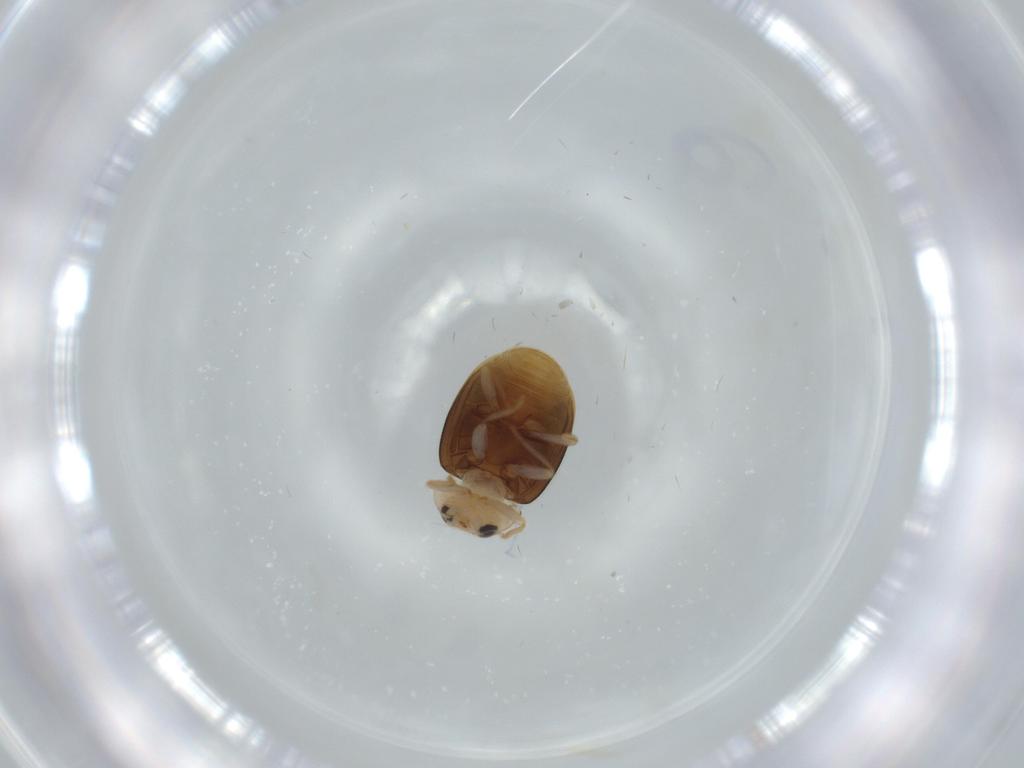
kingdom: Animalia
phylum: Arthropoda
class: Insecta
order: Coleoptera
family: Coccinellidae
